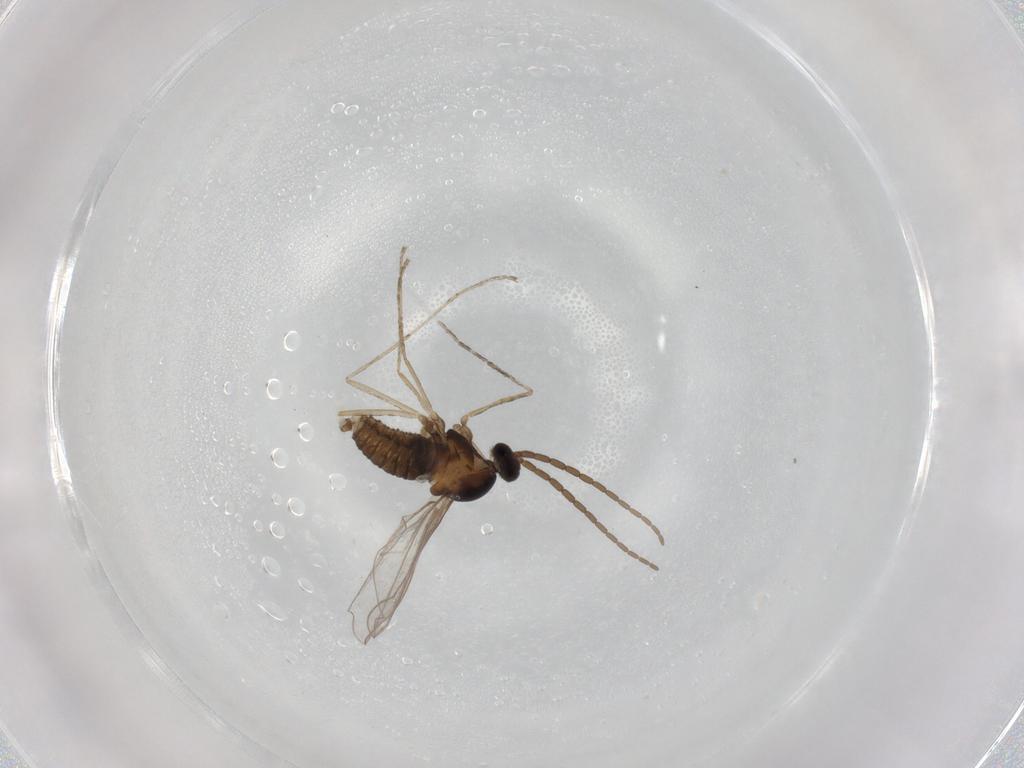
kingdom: Animalia
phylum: Arthropoda
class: Insecta
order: Diptera
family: Cecidomyiidae
